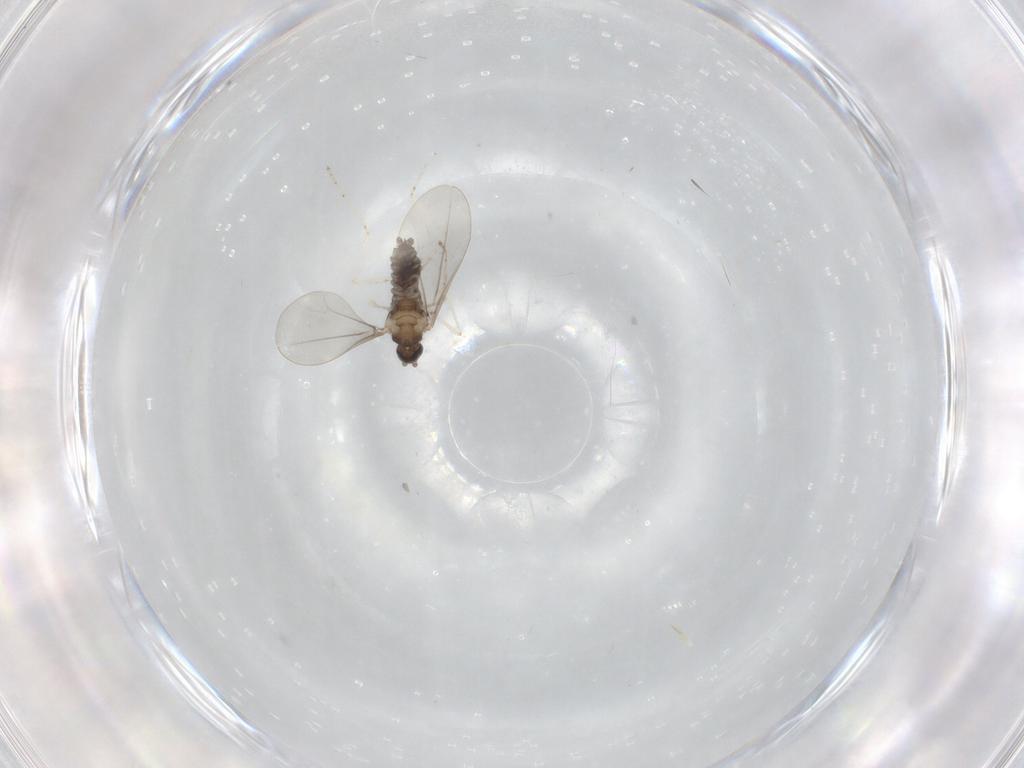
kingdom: Animalia
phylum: Arthropoda
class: Insecta
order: Diptera
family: Cecidomyiidae
